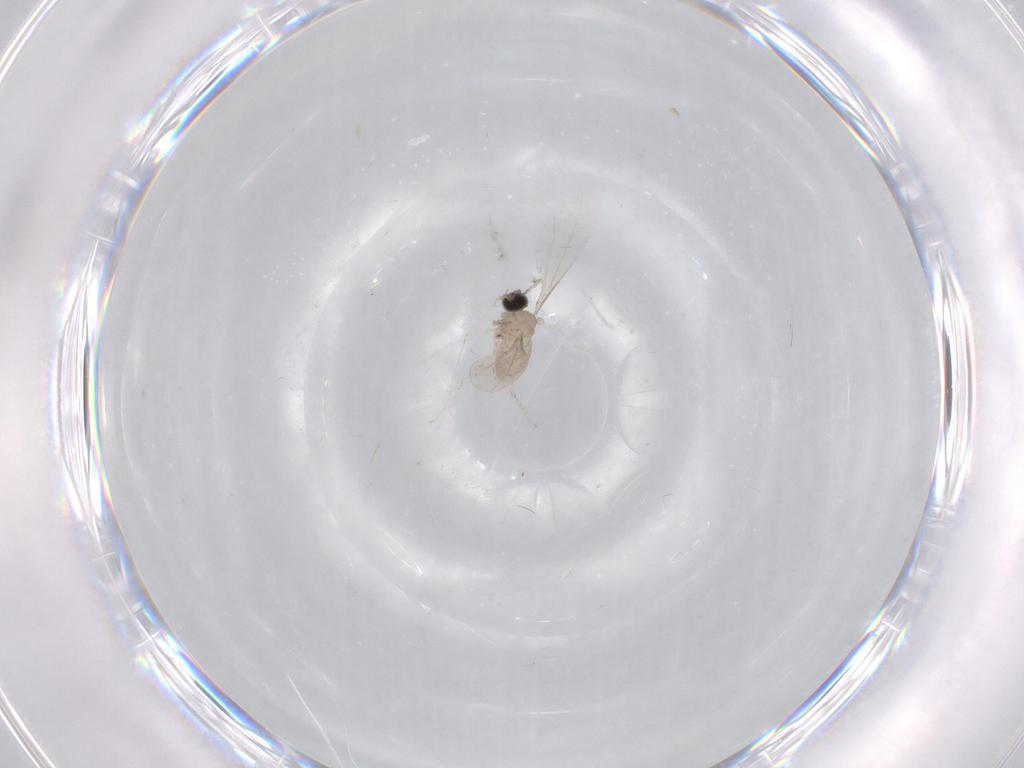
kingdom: Animalia
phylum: Arthropoda
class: Insecta
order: Diptera
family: Cecidomyiidae
